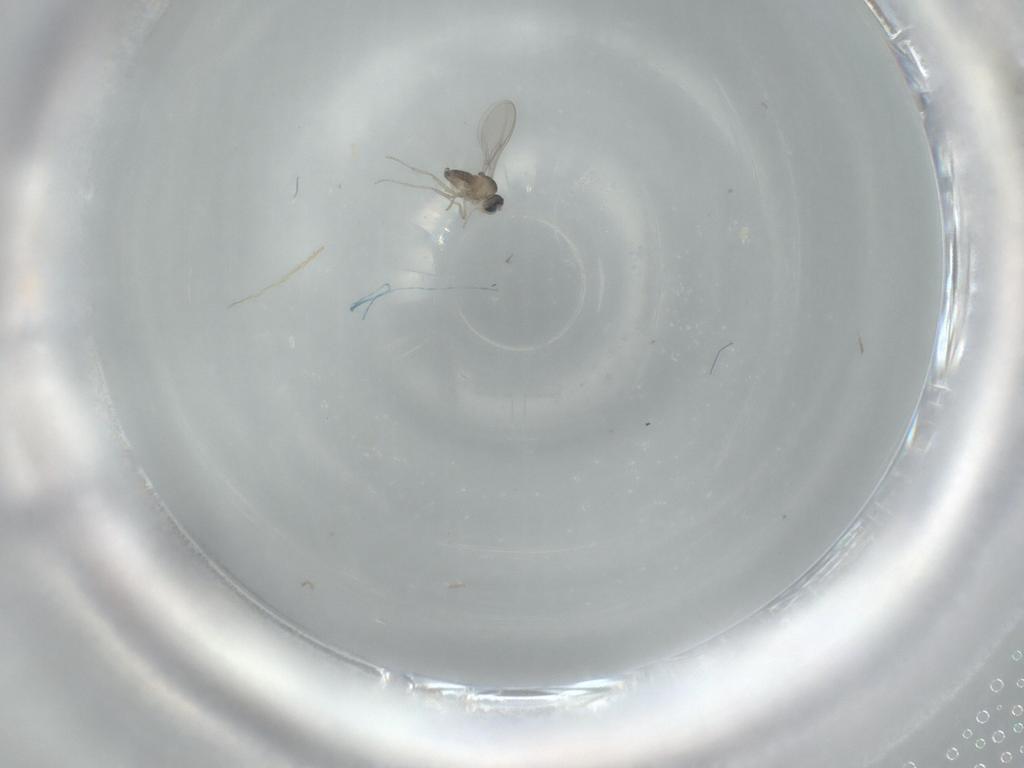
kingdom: Animalia
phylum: Arthropoda
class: Insecta
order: Diptera
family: Cecidomyiidae
